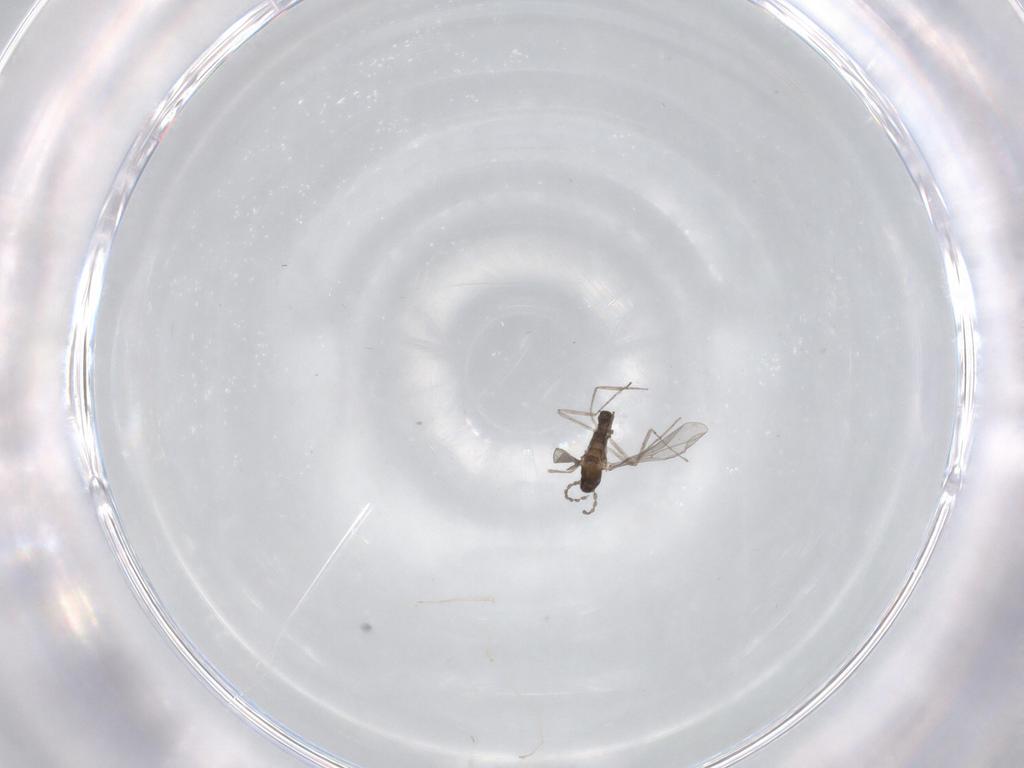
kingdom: Animalia
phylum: Arthropoda
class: Insecta
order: Diptera
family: Cecidomyiidae
